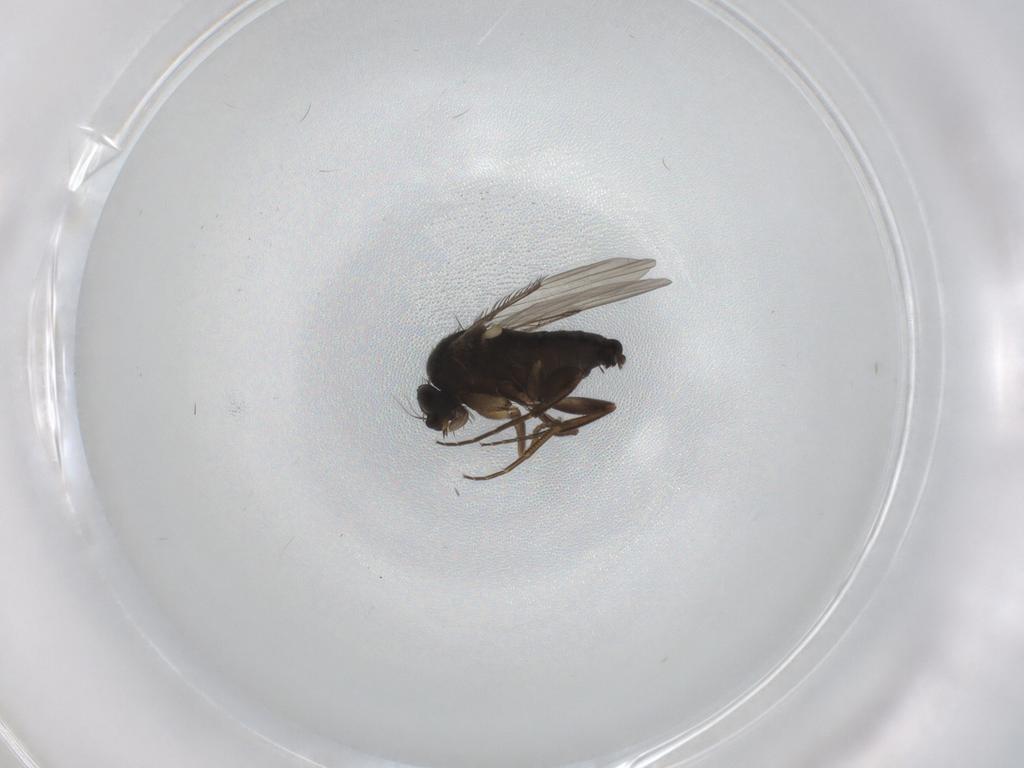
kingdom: Animalia
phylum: Arthropoda
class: Insecta
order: Diptera
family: Phoridae
